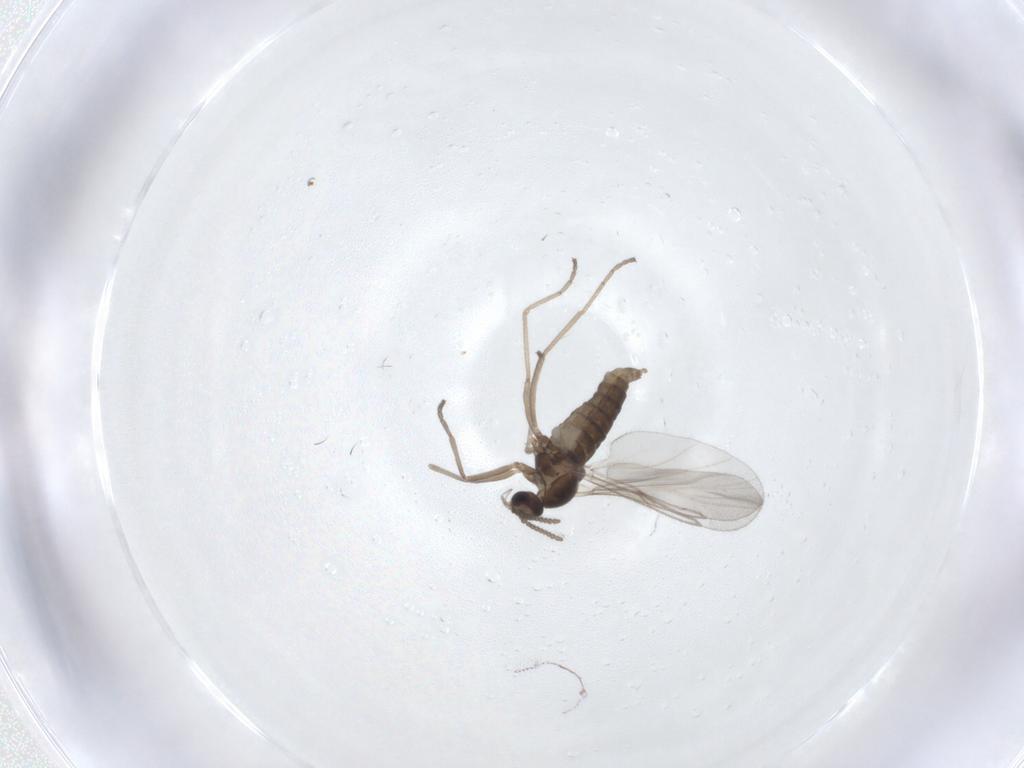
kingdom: Animalia
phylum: Arthropoda
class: Insecta
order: Diptera
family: Cecidomyiidae
